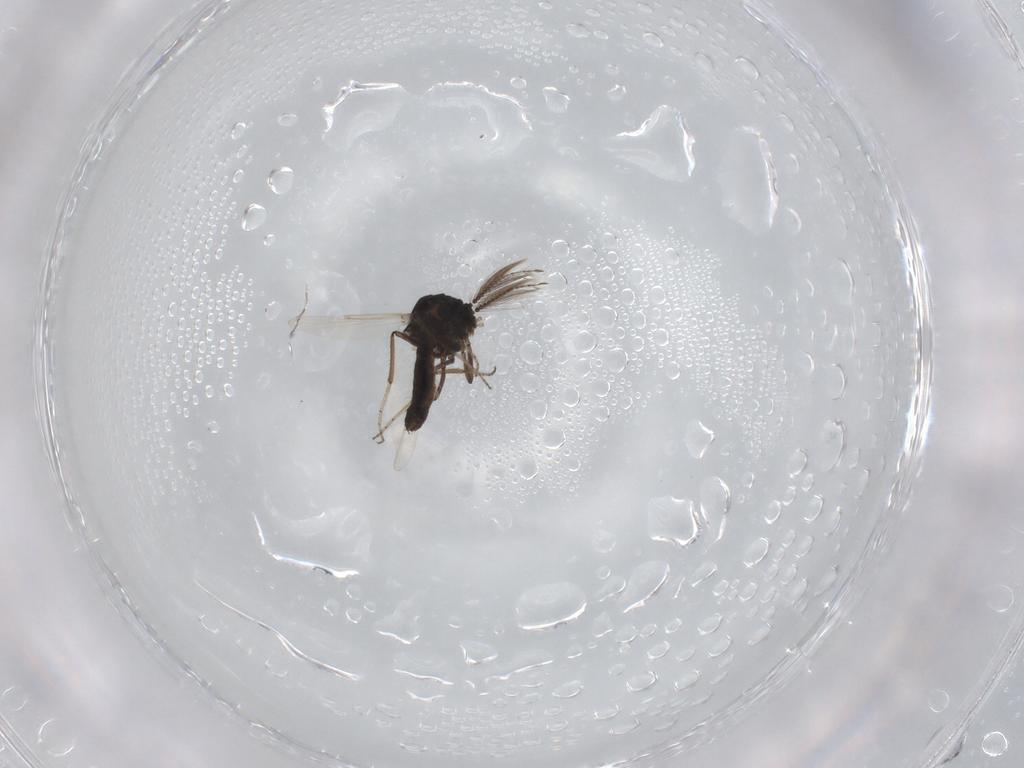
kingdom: Animalia
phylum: Arthropoda
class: Insecta
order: Diptera
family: Ceratopogonidae
